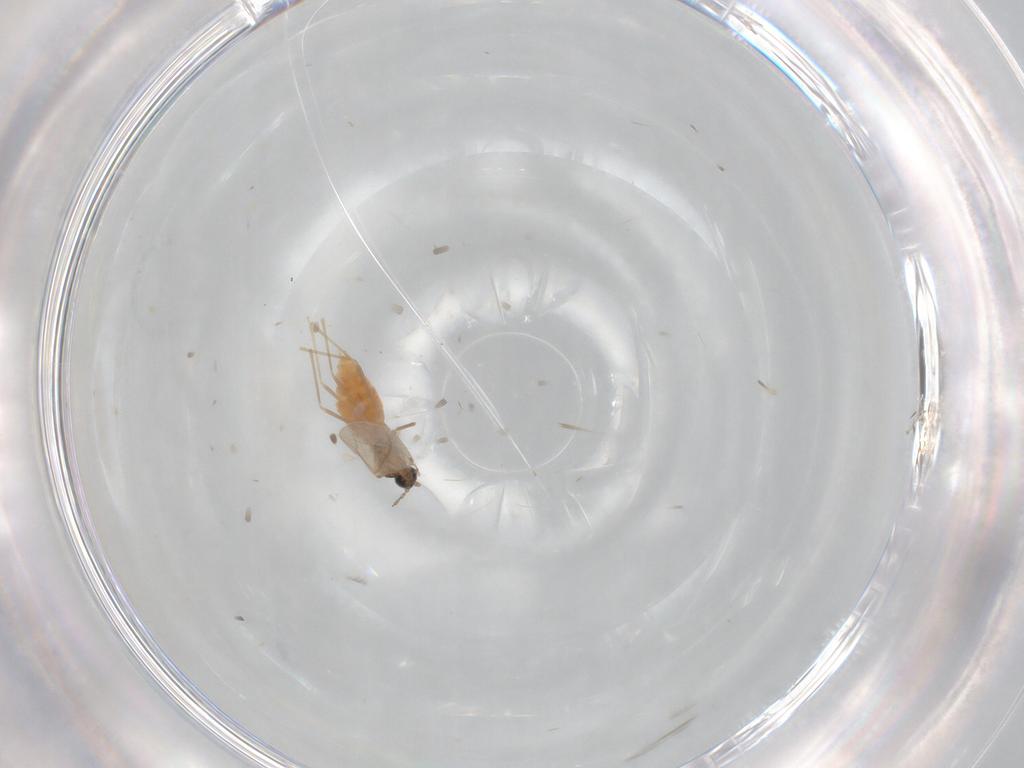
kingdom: Animalia
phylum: Arthropoda
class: Insecta
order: Diptera
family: Cecidomyiidae
